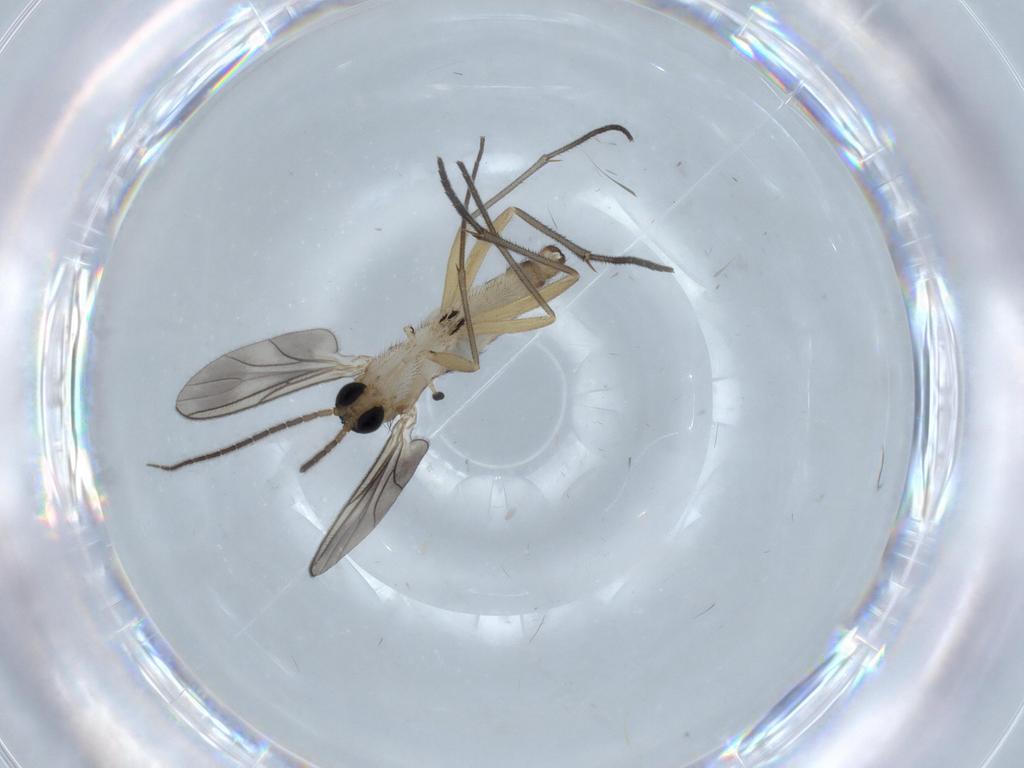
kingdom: Animalia
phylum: Arthropoda
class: Insecta
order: Diptera
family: Sciaridae
